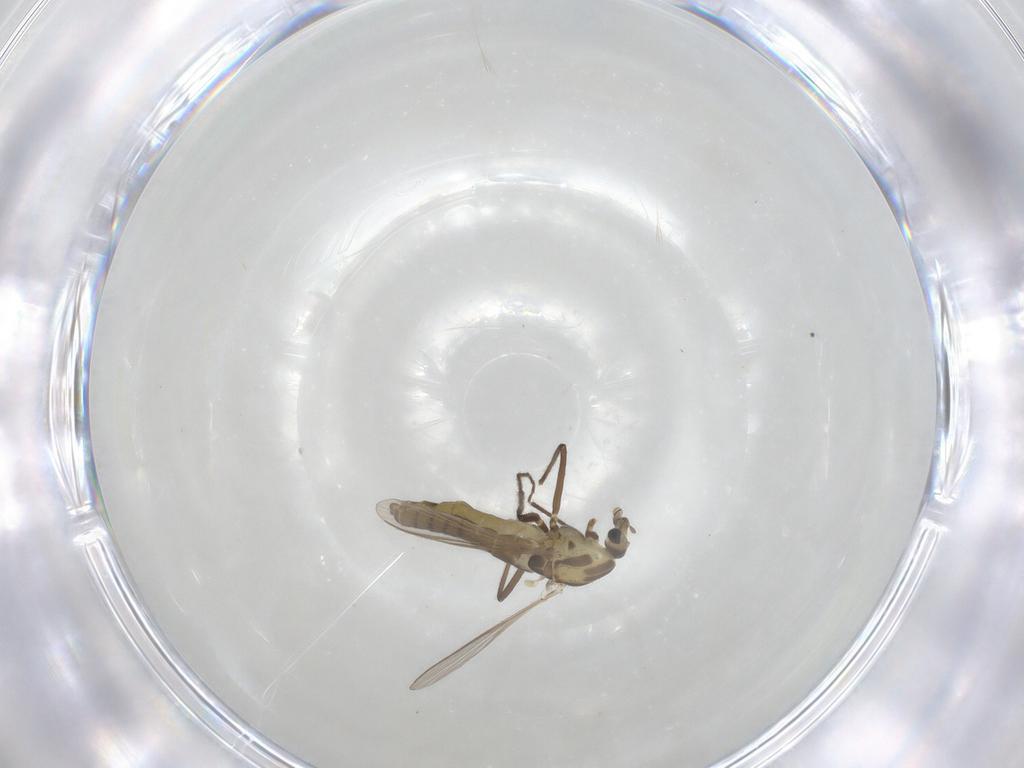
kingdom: Animalia
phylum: Arthropoda
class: Insecta
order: Diptera
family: Chironomidae
